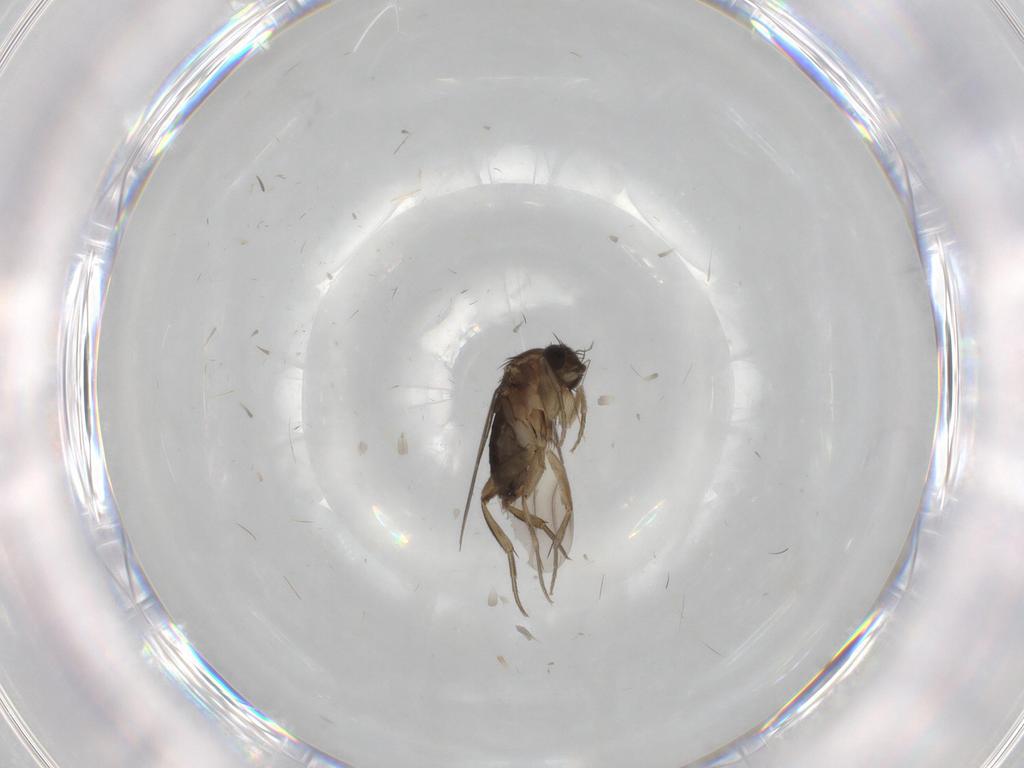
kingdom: Animalia
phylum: Arthropoda
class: Insecta
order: Diptera
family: Phoridae
